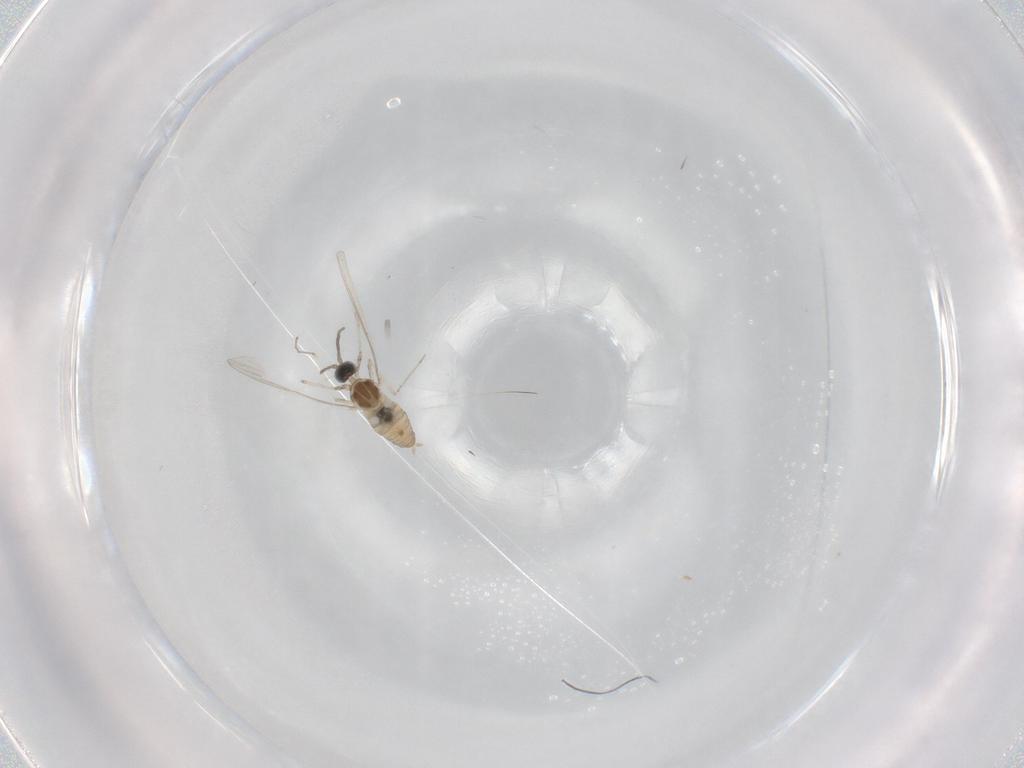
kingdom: Animalia
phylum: Arthropoda
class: Insecta
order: Diptera
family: Cecidomyiidae
